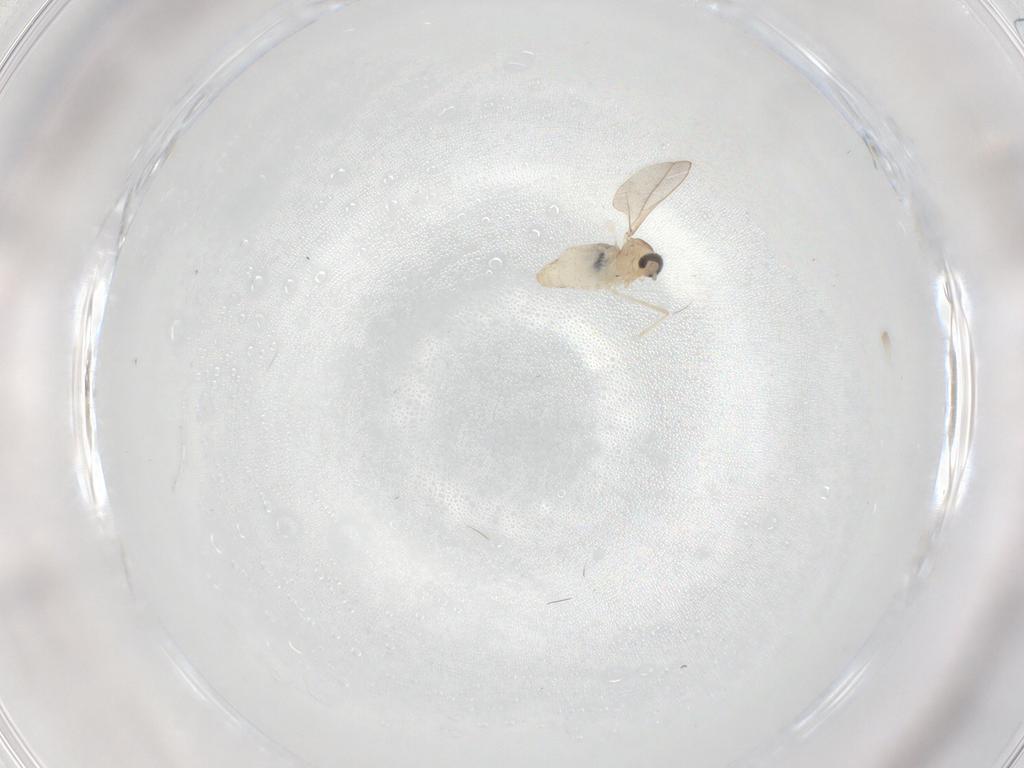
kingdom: Animalia
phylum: Arthropoda
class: Insecta
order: Diptera
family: Cecidomyiidae
